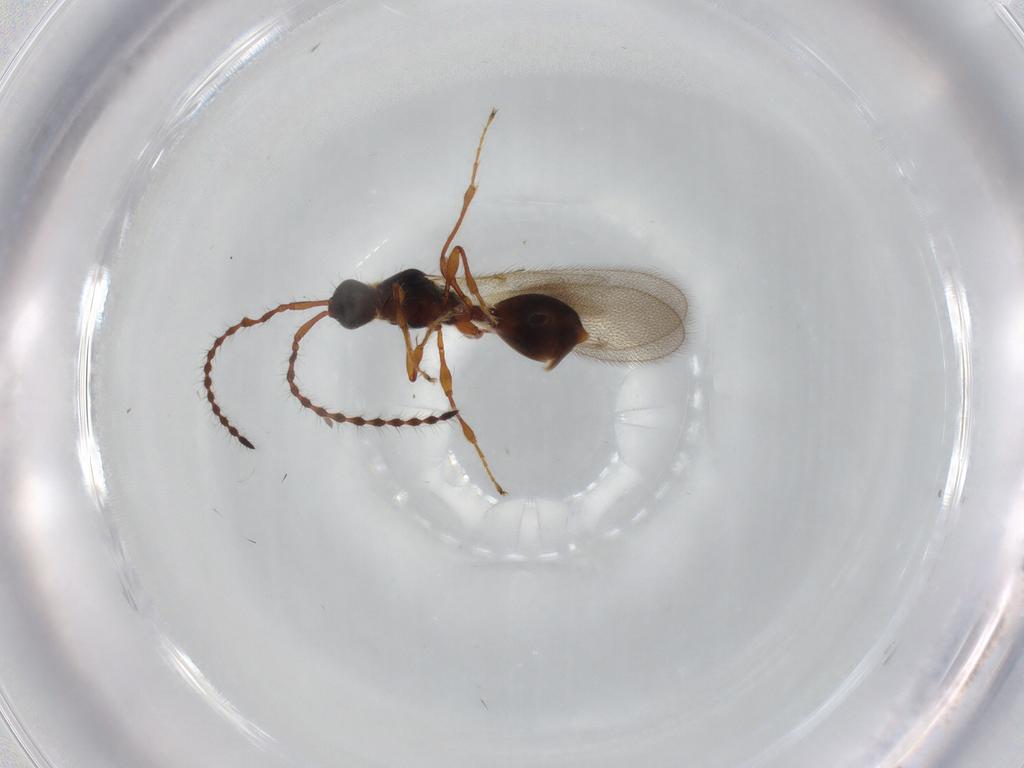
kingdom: Animalia
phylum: Arthropoda
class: Insecta
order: Hymenoptera
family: Diapriidae
